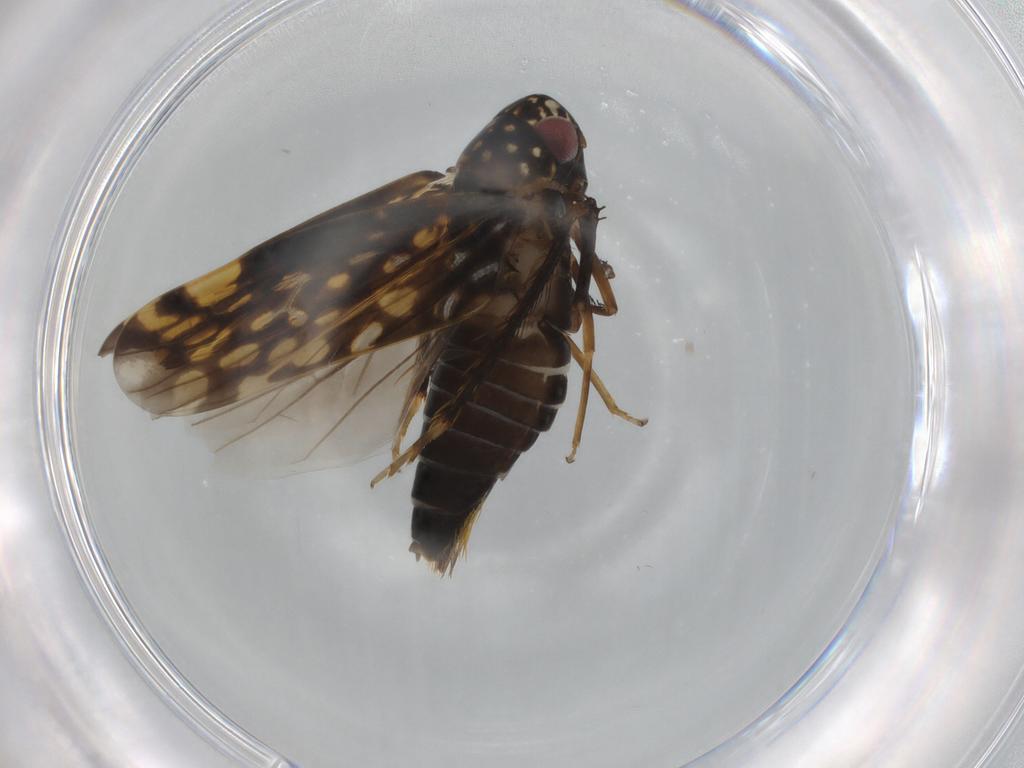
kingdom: Animalia
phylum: Arthropoda
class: Insecta
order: Hemiptera
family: Cicadellidae
